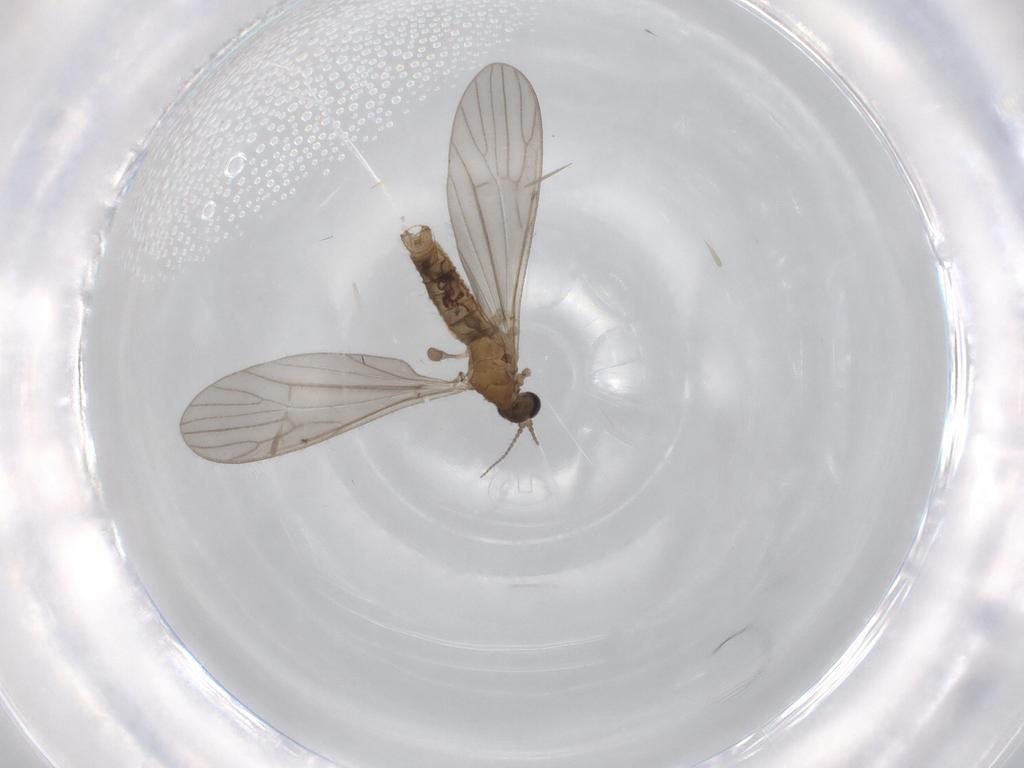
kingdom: Animalia
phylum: Arthropoda
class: Insecta
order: Diptera
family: Limoniidae
